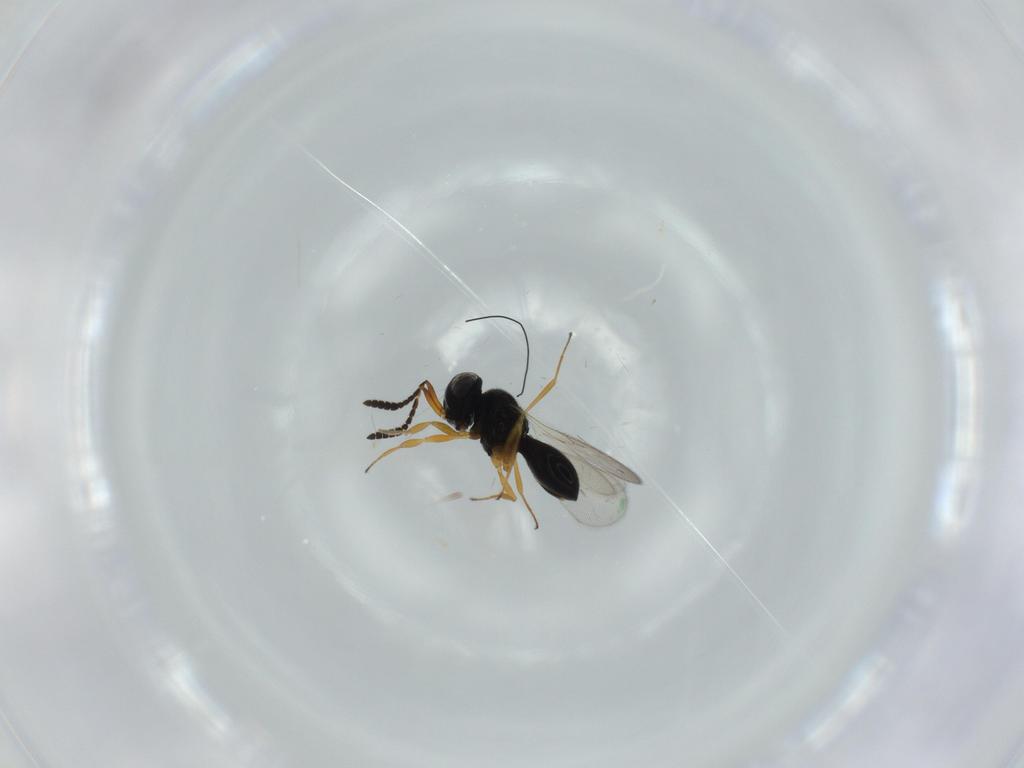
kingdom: Animalia
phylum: Arthropoda
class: Insecta
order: Hymenoptera
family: Scelionidae
